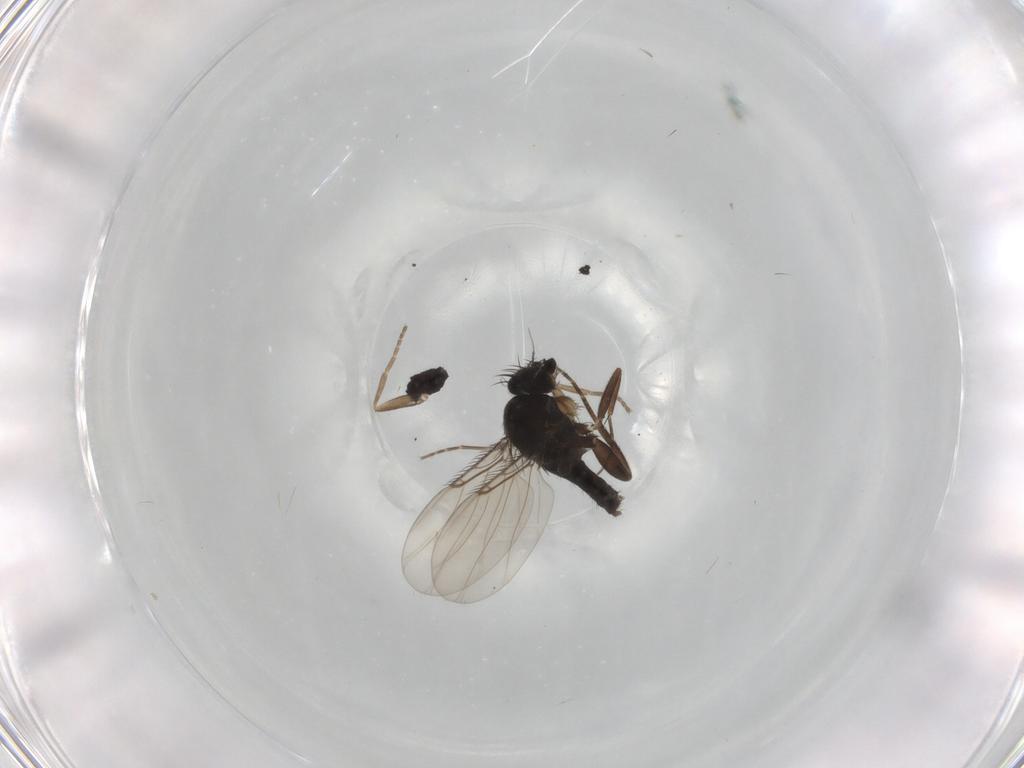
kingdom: Animalia
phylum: Arthropoda
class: Insecta
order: Diptera
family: Phoridae
